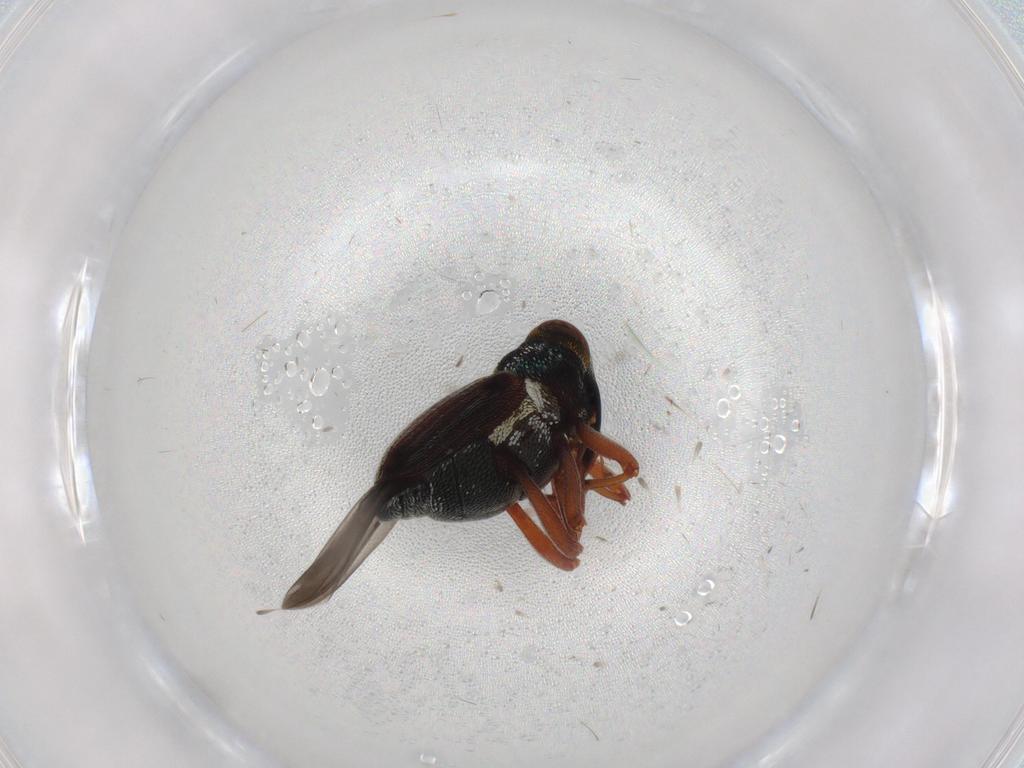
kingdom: Animalia
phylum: Arthropoda
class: Insecta
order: Coleoptera
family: Curculionidae
